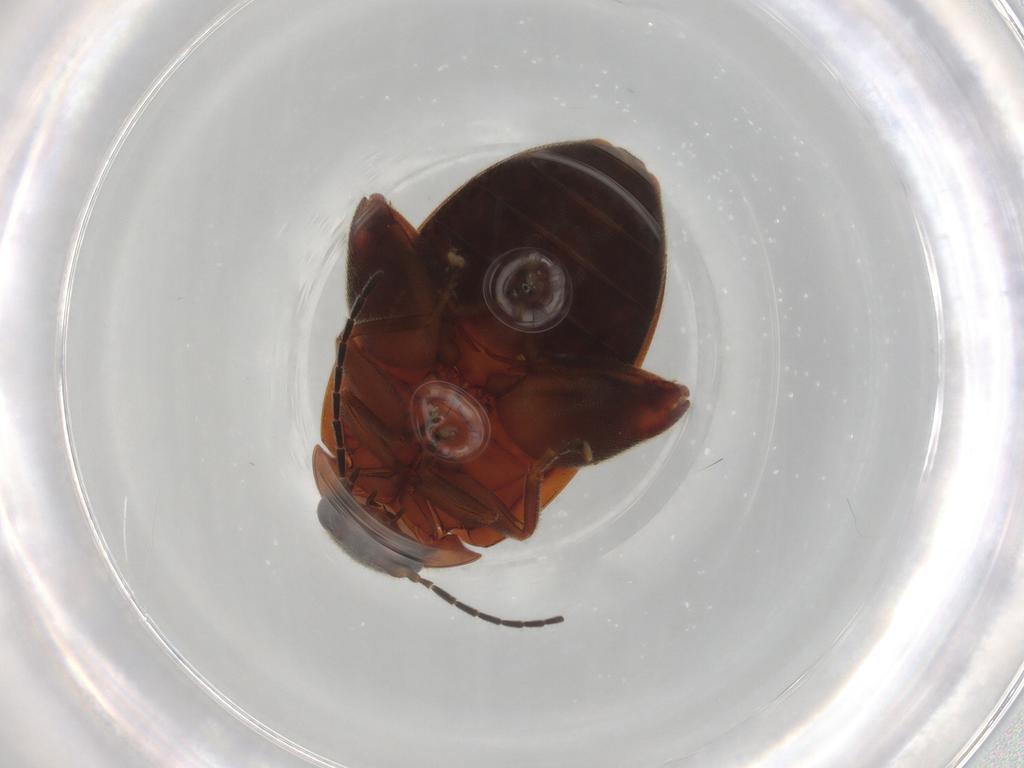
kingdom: Animalia
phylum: Arthropoda
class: Insecta
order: Coleoptera
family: Scirtidae
